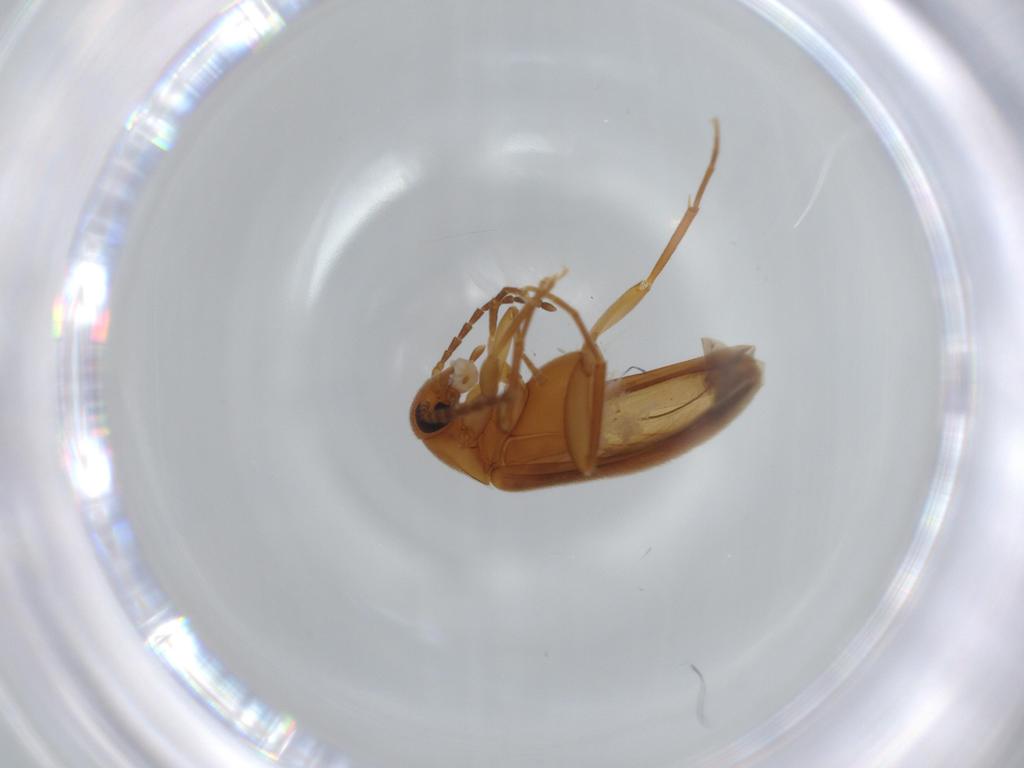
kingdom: Animalia
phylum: Arthropoda
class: Insecta
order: Coleoptera
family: Scraptiidae
